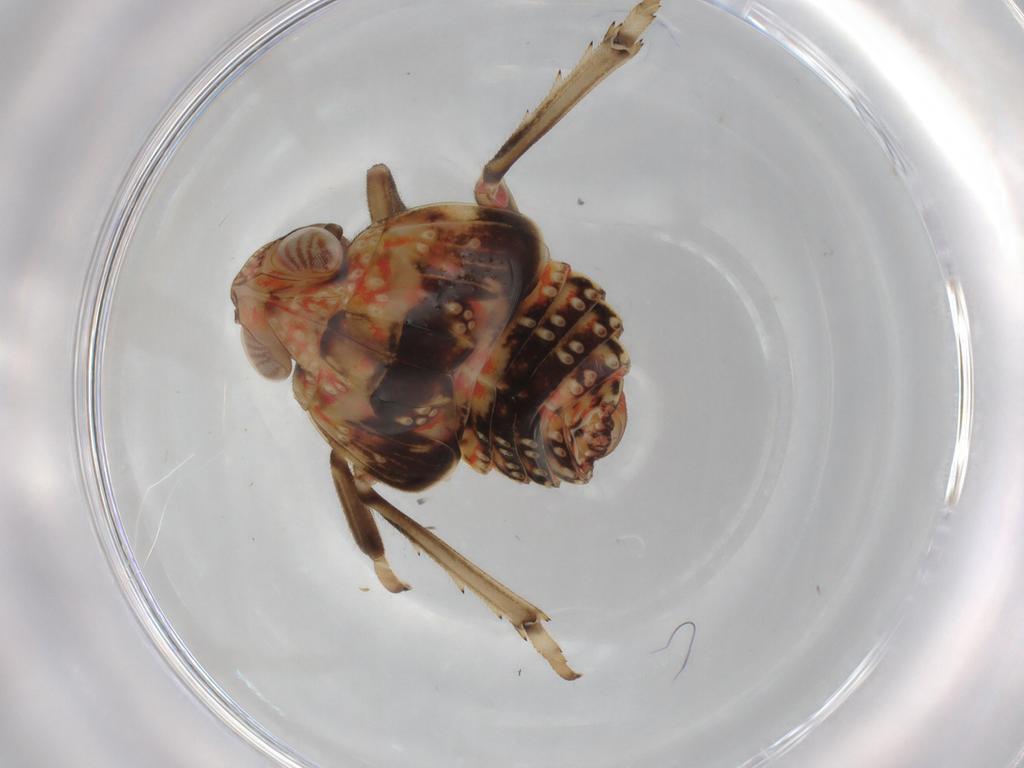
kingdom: Animalia
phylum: Arthropoda
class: Insecta
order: Hemiptera
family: Tropiduchidae
